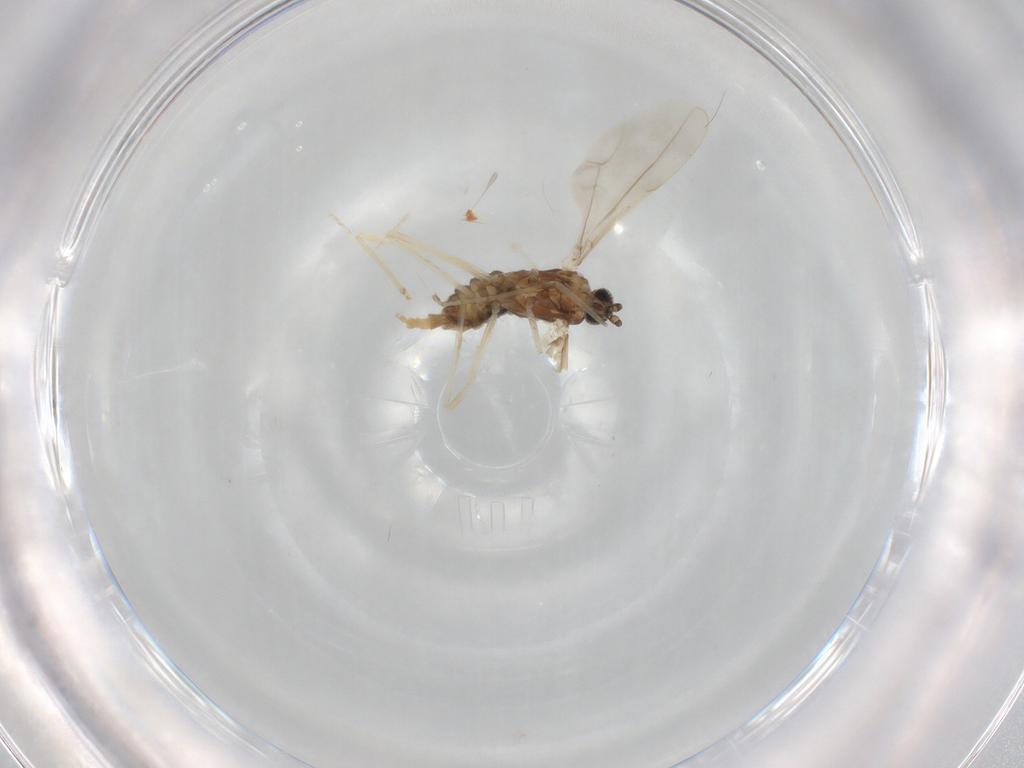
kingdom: Animalia
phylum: Arthropoda
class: Insecta
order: Diptera
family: Cecidomyiidae
